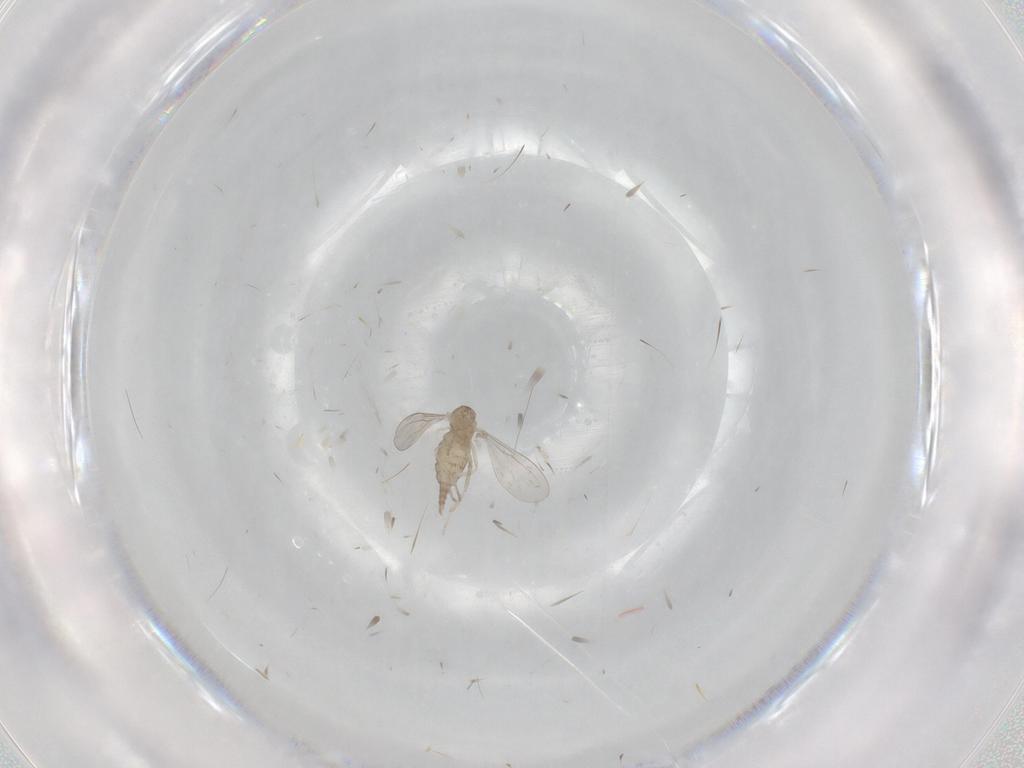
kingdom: Animalia
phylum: Arthropoda
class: Insecta
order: Diptera
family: Cecidomyiidae
